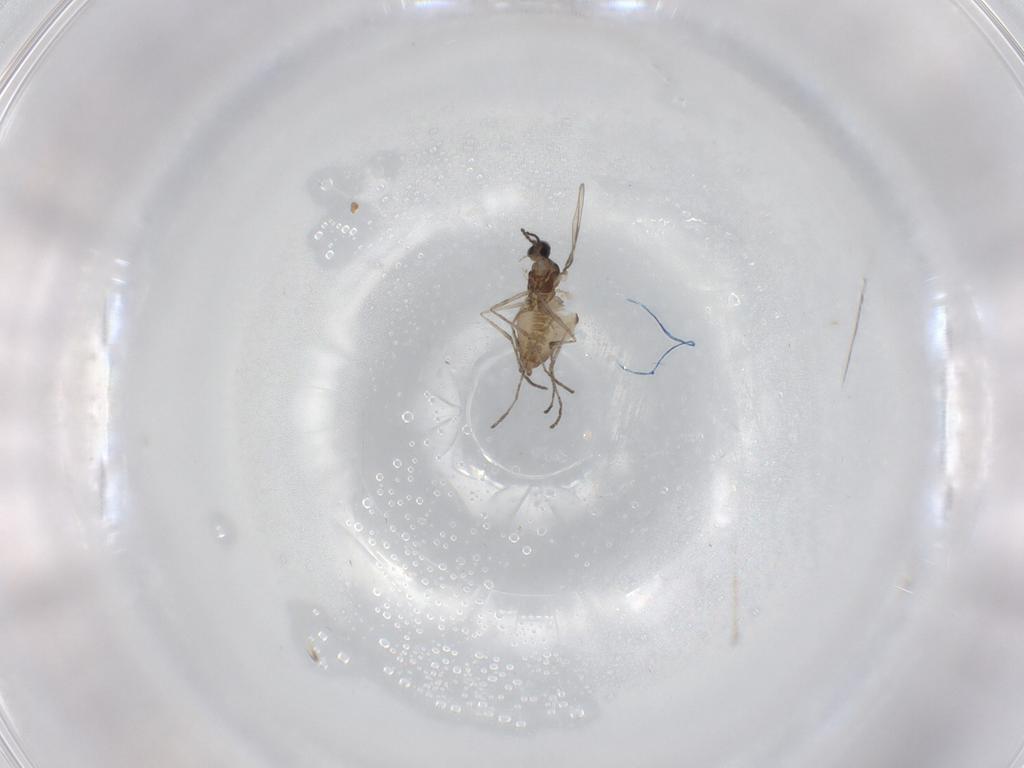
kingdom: Animalia
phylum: Arthropoda
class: Insecta
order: Diptera
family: Cecidomyiidae
